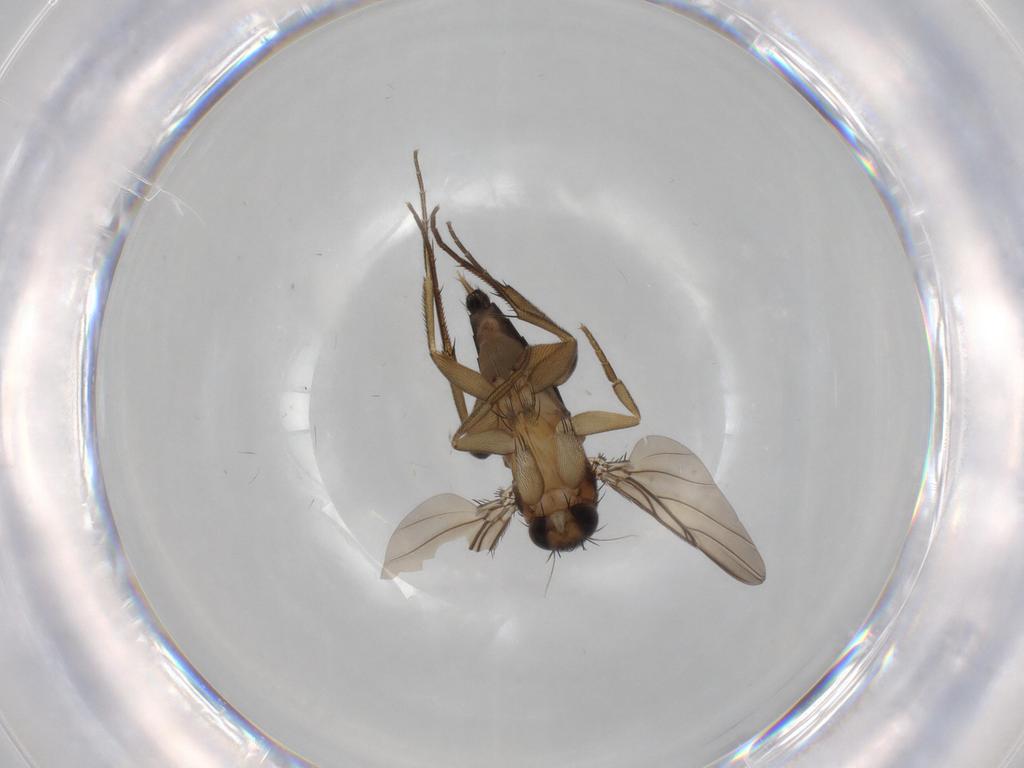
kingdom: Animalia
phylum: Arthropoda
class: Insecta
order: Diptera
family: Phoridae
